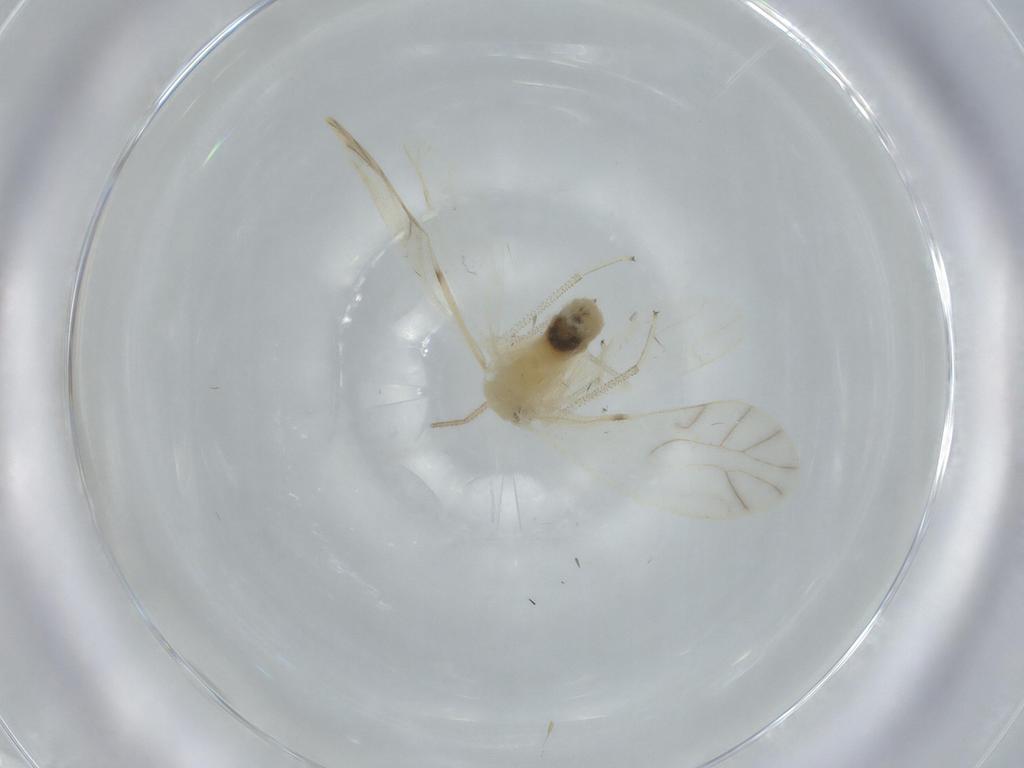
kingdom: Animalia
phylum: Arthropoda
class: Insecta
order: Psocodea
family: Caeciliusidae
